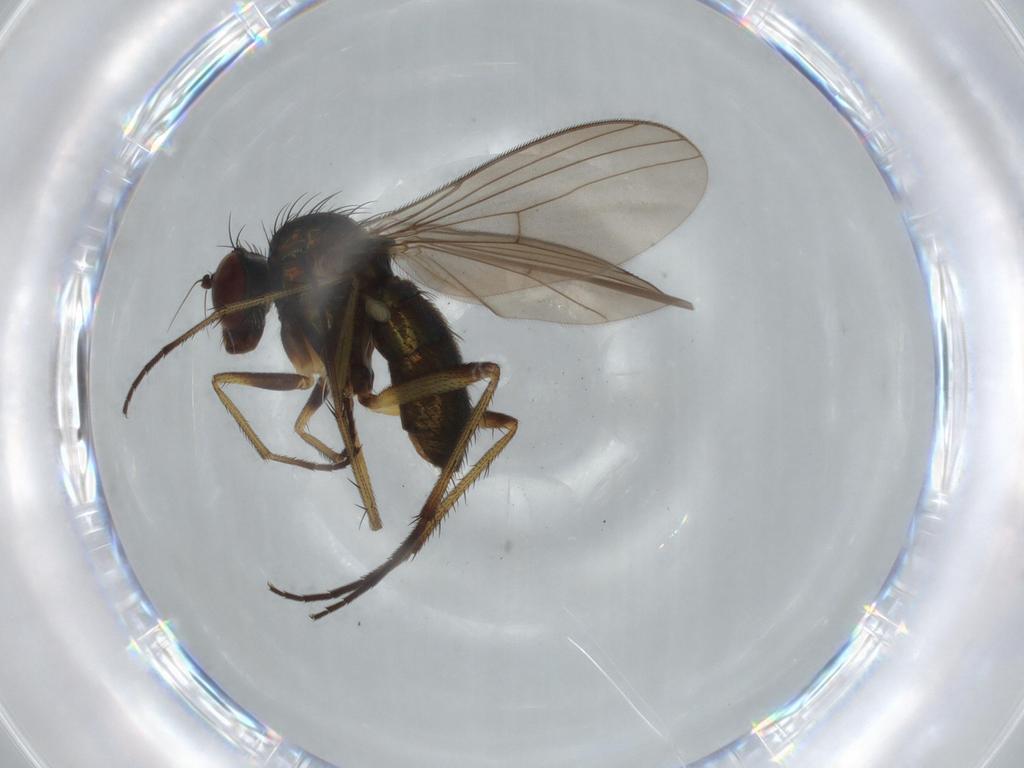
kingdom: Animalia
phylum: Arthropoda
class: Insecta
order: Diptera
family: Dolichopodidae
